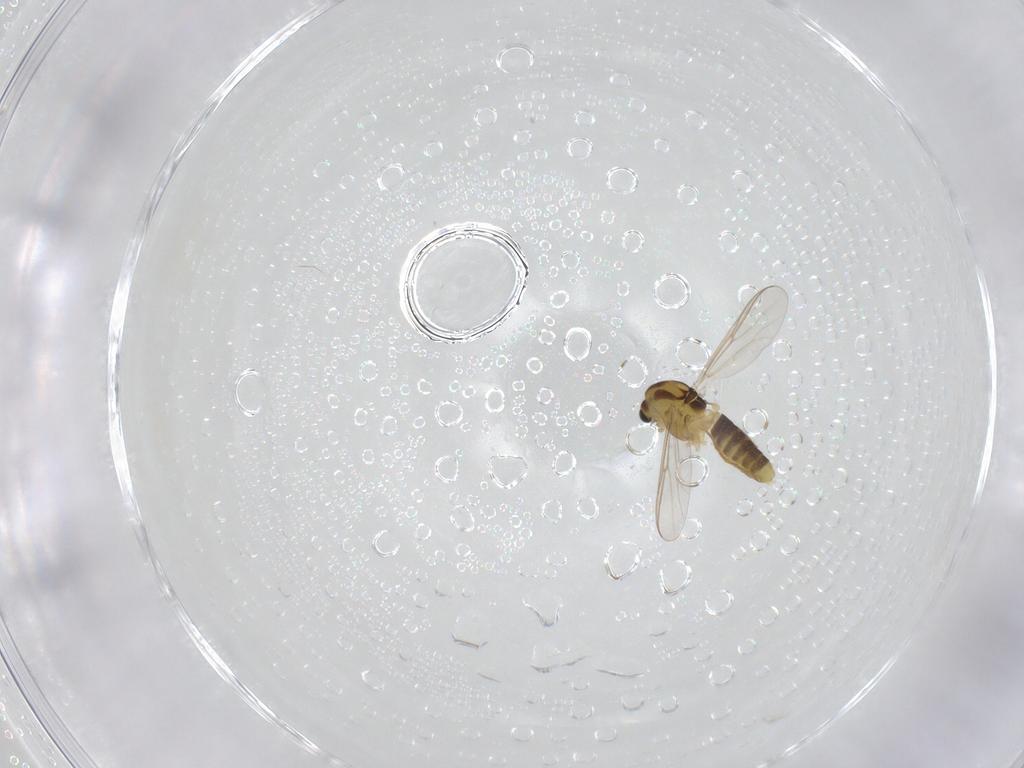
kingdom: Animalia
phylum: Arthropoda
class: Insecta
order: Diptera
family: Chironomidae
